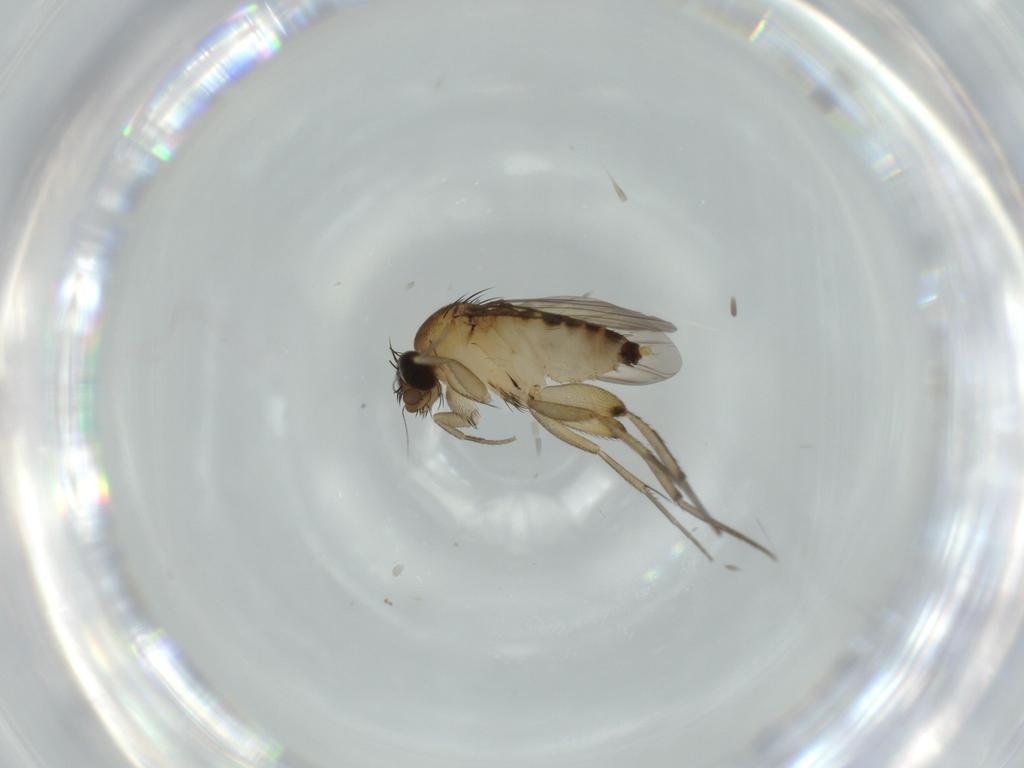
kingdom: Animalia
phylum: Arthropoda
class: Insecta
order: Diptera
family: Phoridae
